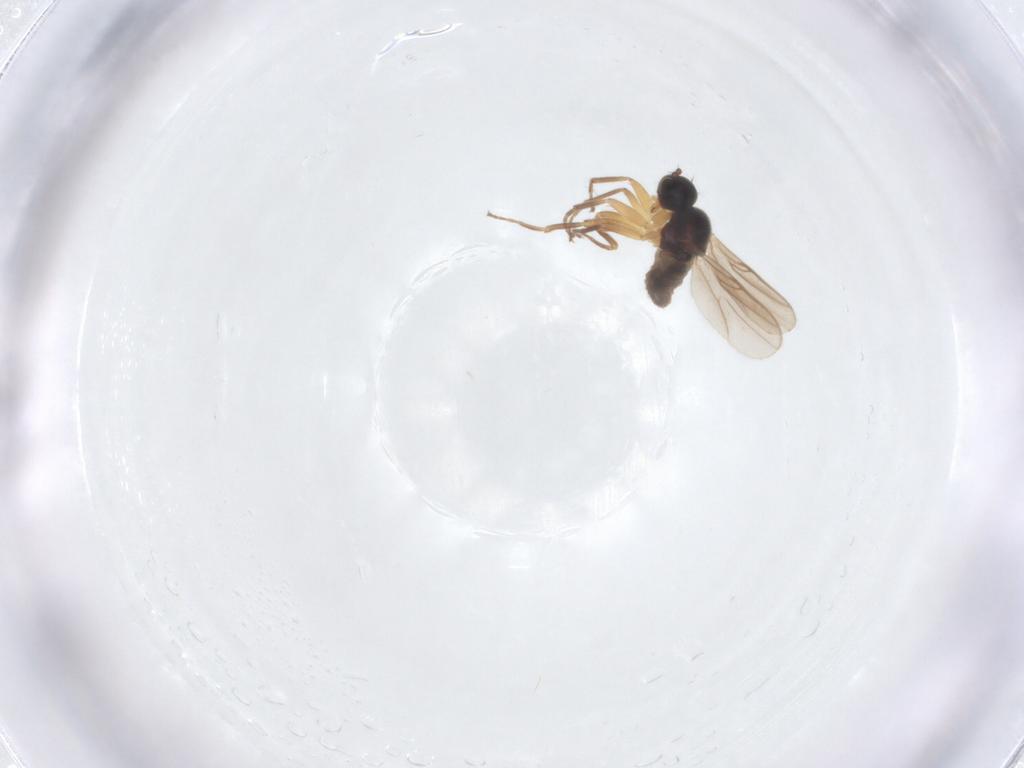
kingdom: Animalia
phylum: Arthropoda
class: Insecta
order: Diptera
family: Hybotidae
